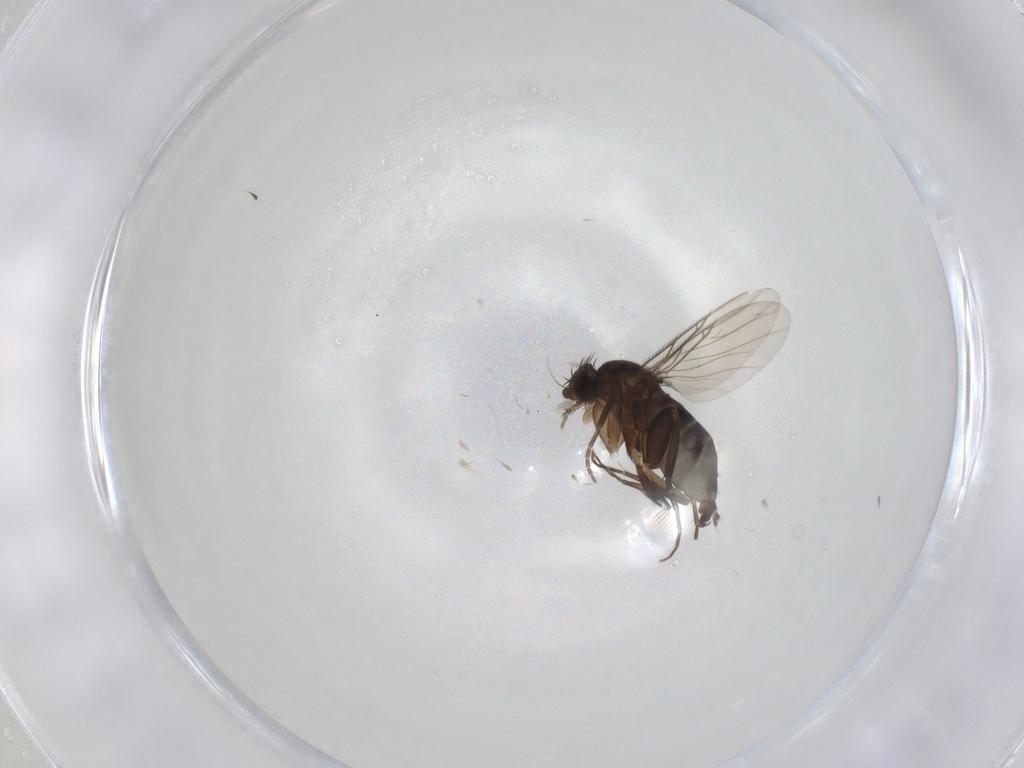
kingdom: Animalia
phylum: Arthropoda
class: Insecta
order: Diptera
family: Phoridae
